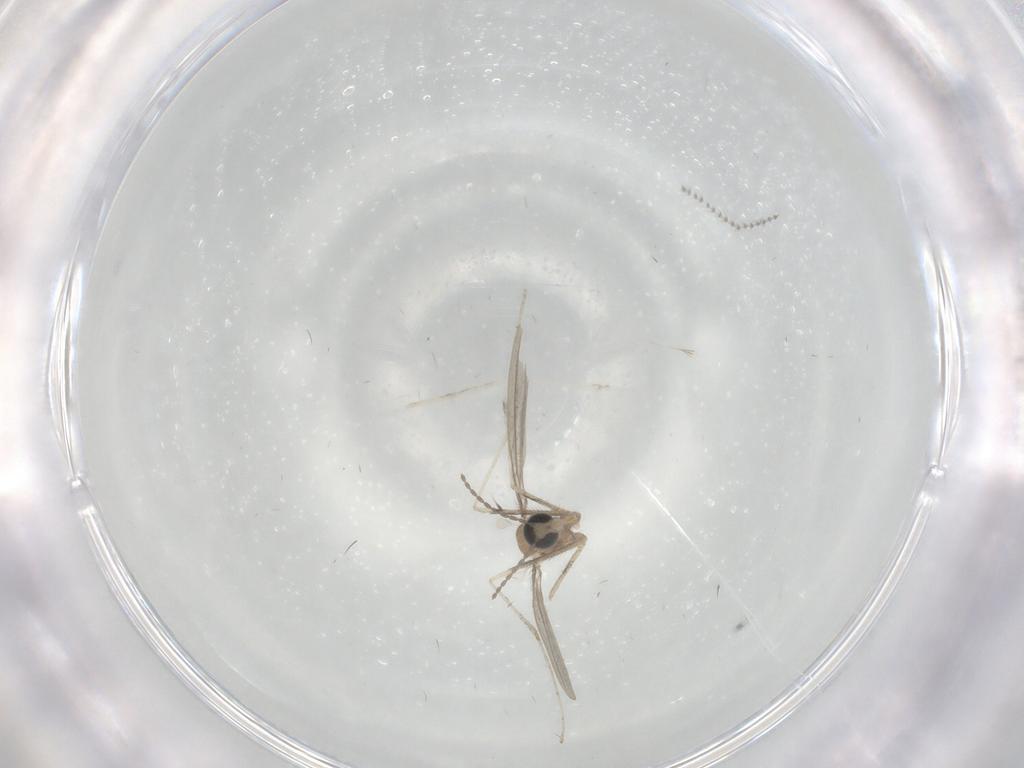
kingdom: Animalia
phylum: Arthropoda
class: Insecta
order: Diptera
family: Cecidomyiidae
